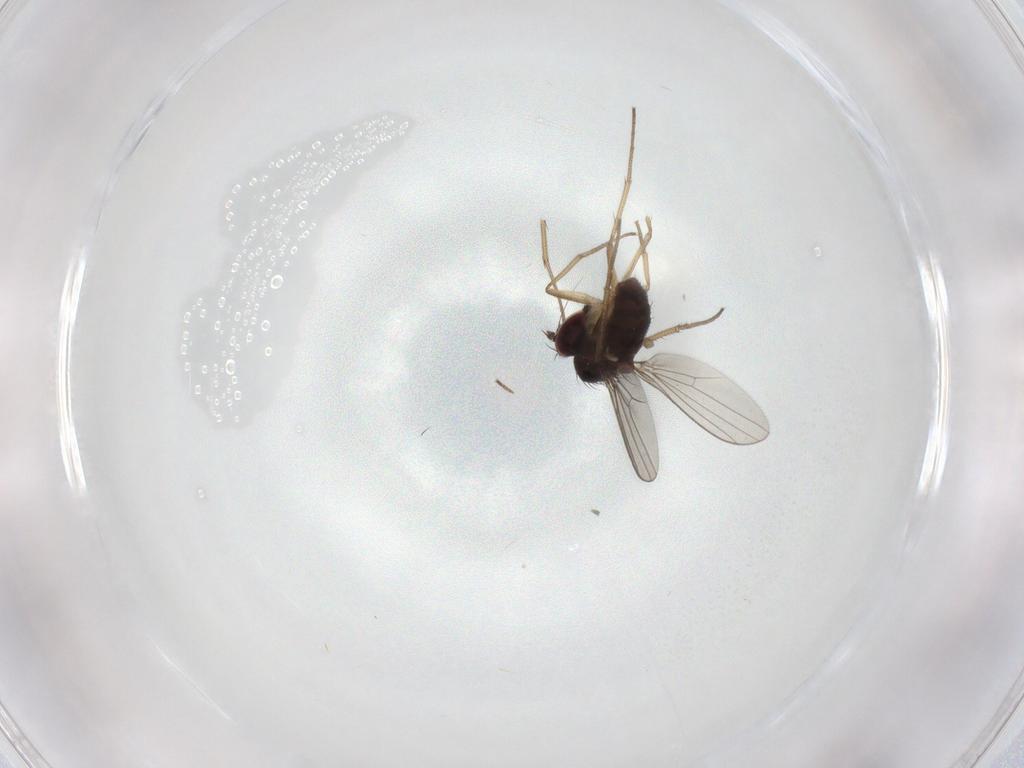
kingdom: Animalia
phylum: Arthropoda
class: Insecta
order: Diptera
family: Dolichopodidae
